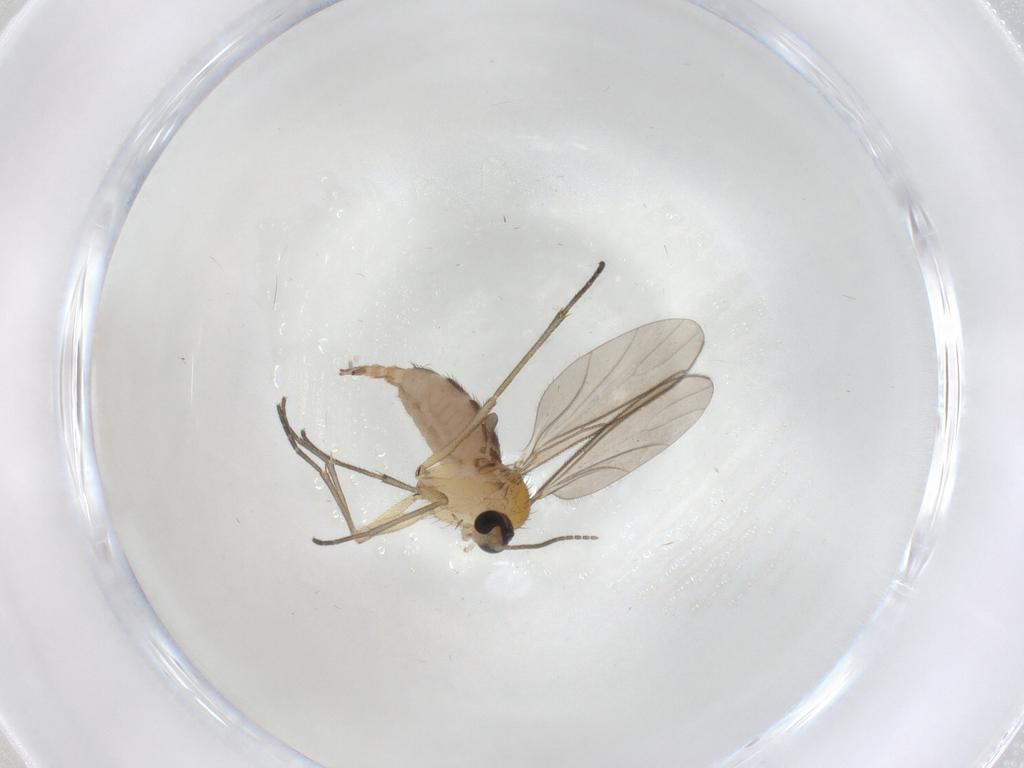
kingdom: Animalia
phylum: Arthropoda
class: Insecta
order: Diptera
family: Sciaridae
